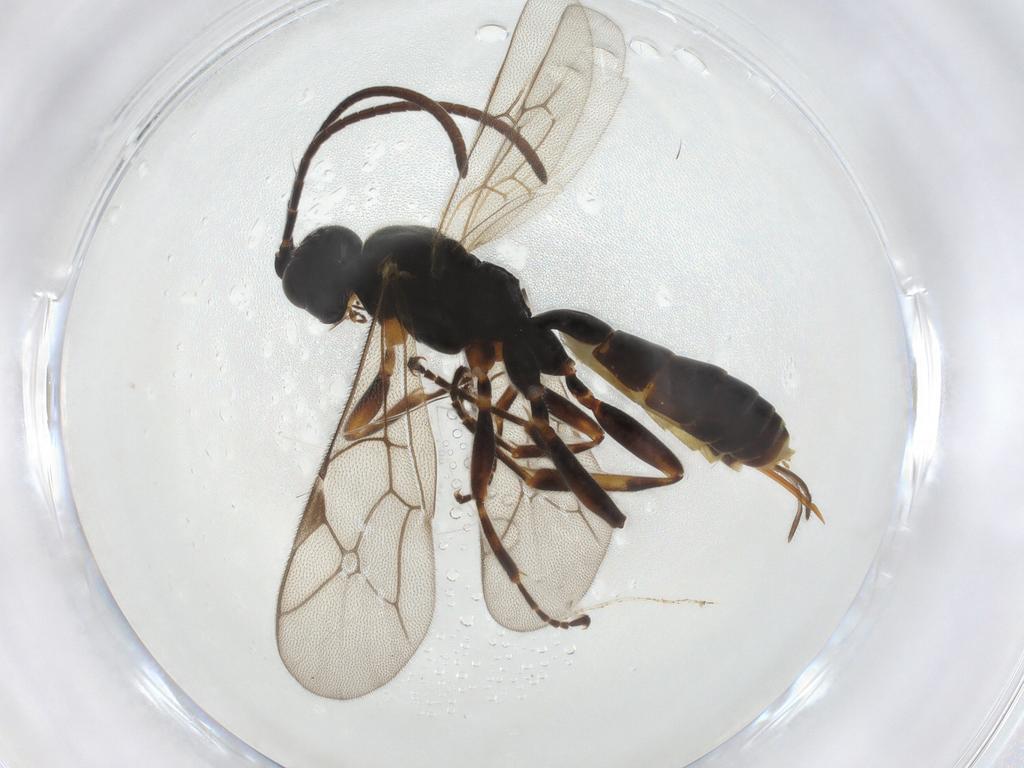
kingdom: Animalia
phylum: Arthropoda
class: Insecta
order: Hymenoptera
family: Ichneumonidae
